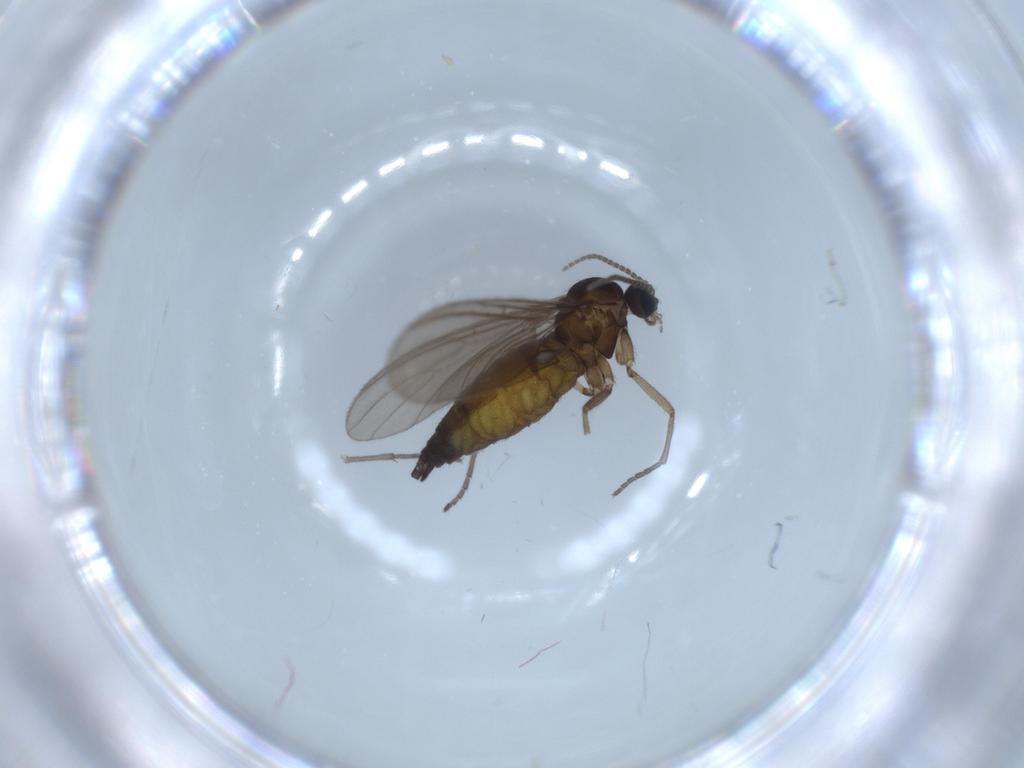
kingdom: Animalia
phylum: Arthropoda
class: Insecta
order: Diptera
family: Sciaridae
